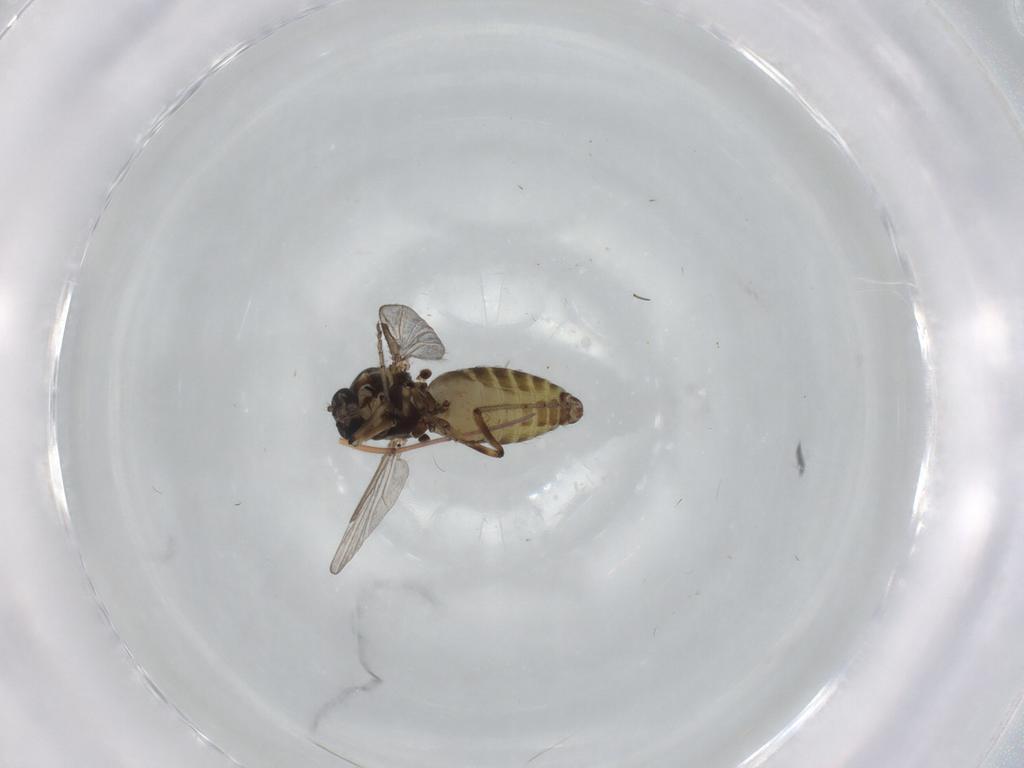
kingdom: Animalia
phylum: Arthropoda
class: Insecta
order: Diptera
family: Ceratopogonidae
